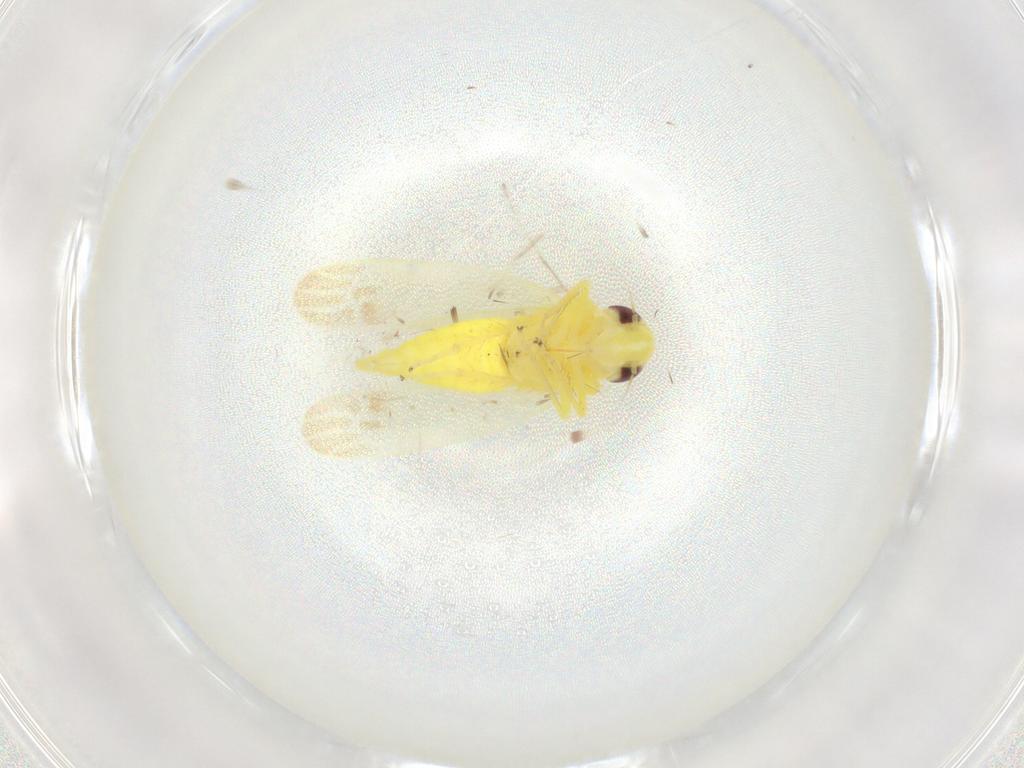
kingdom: Animalia
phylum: Arthropoda
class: Insecta
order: Hemiptera
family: Cicadellidae
